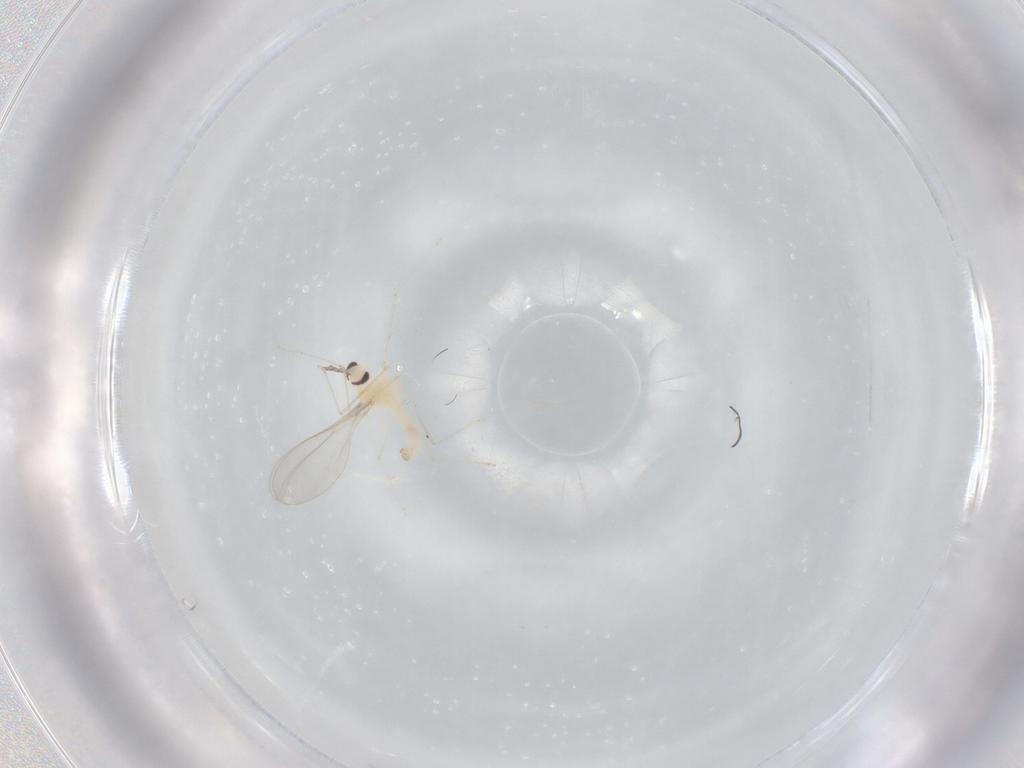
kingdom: Animalia
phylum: Arthropoda
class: Insecta
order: Diptera
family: Cecidomyiidae
